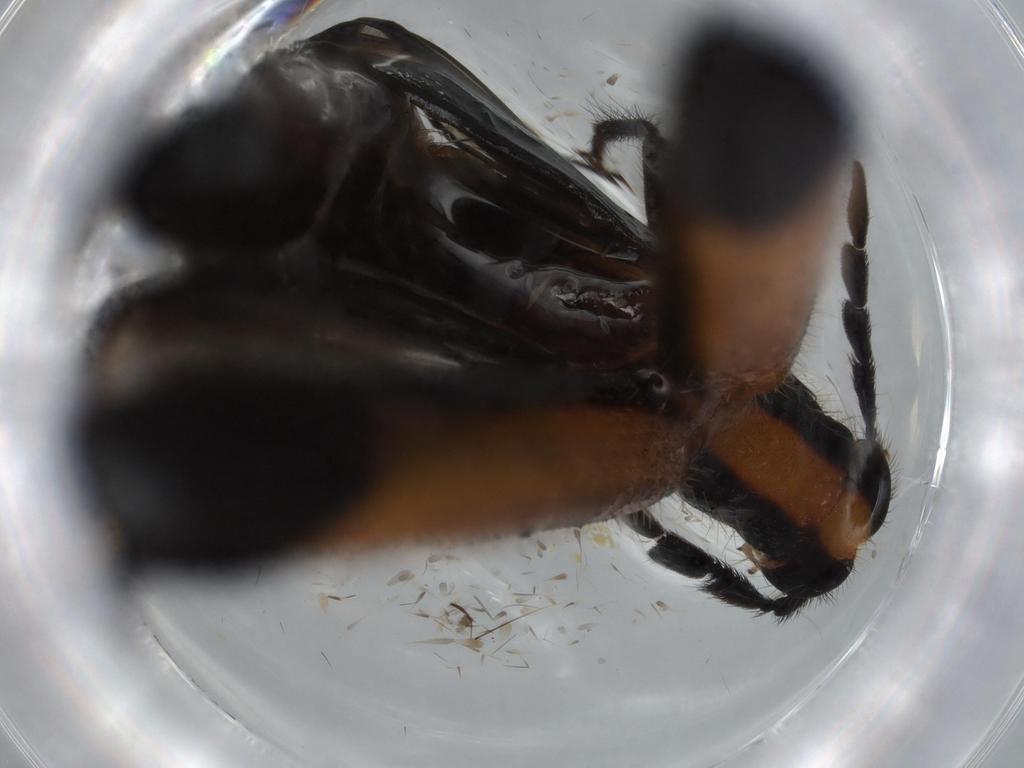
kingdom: Animalia
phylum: Arthropoda
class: Insecta
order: Coleoptera
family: Cleridae
